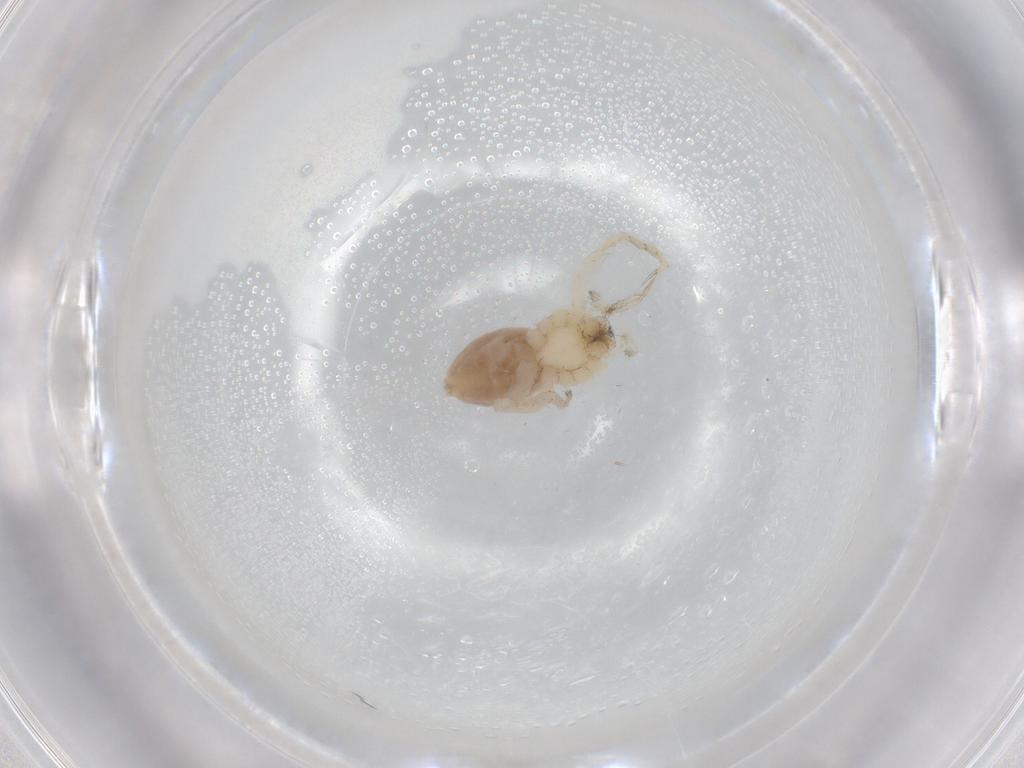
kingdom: Animalia
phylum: Arthropoda
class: Arachnida
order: Araneae
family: Anyphaenidae
